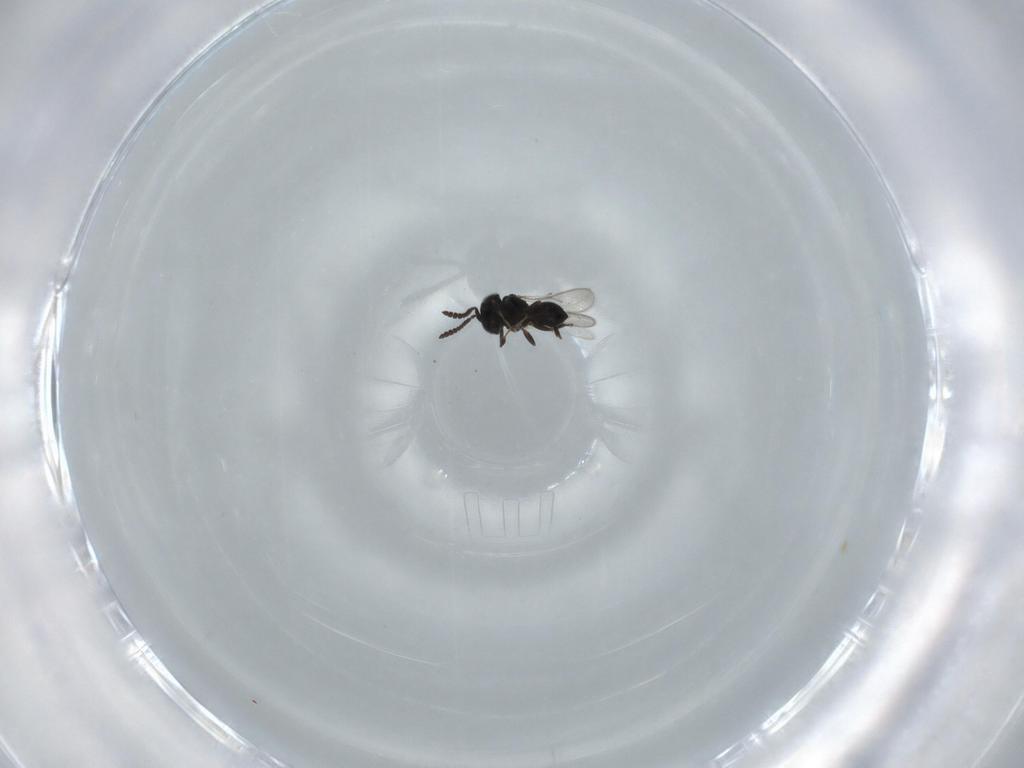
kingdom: Animalia
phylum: Arthropoda
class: Insecta
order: Hymenoptera
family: Scelionidae
